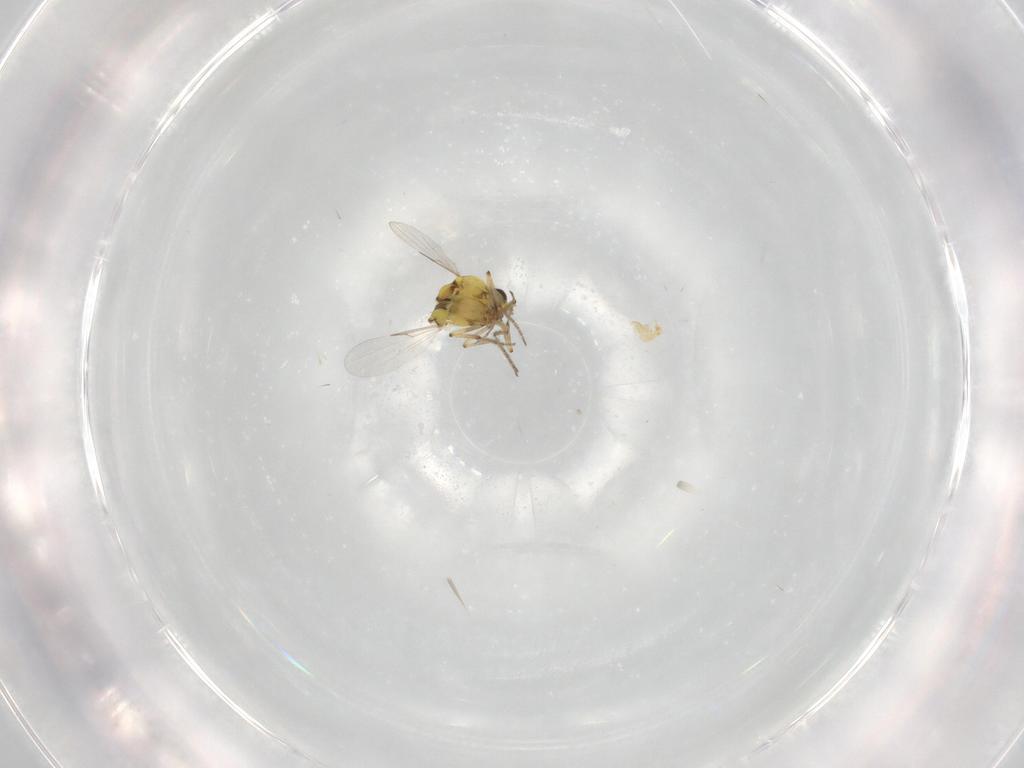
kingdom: Animalia
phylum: Arthropoda
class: Insecta
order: Diptera
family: Ceratopogonidae
